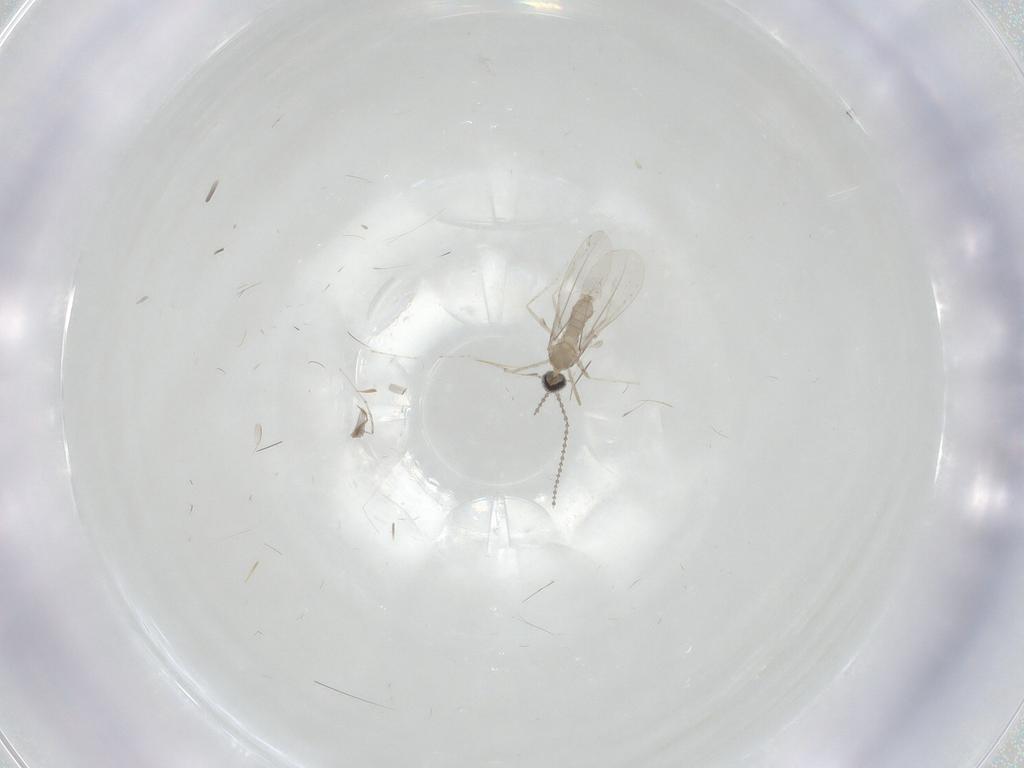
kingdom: Animalia
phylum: Arthropoda
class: Insecta
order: Diptera
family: Cecidomyiidae
